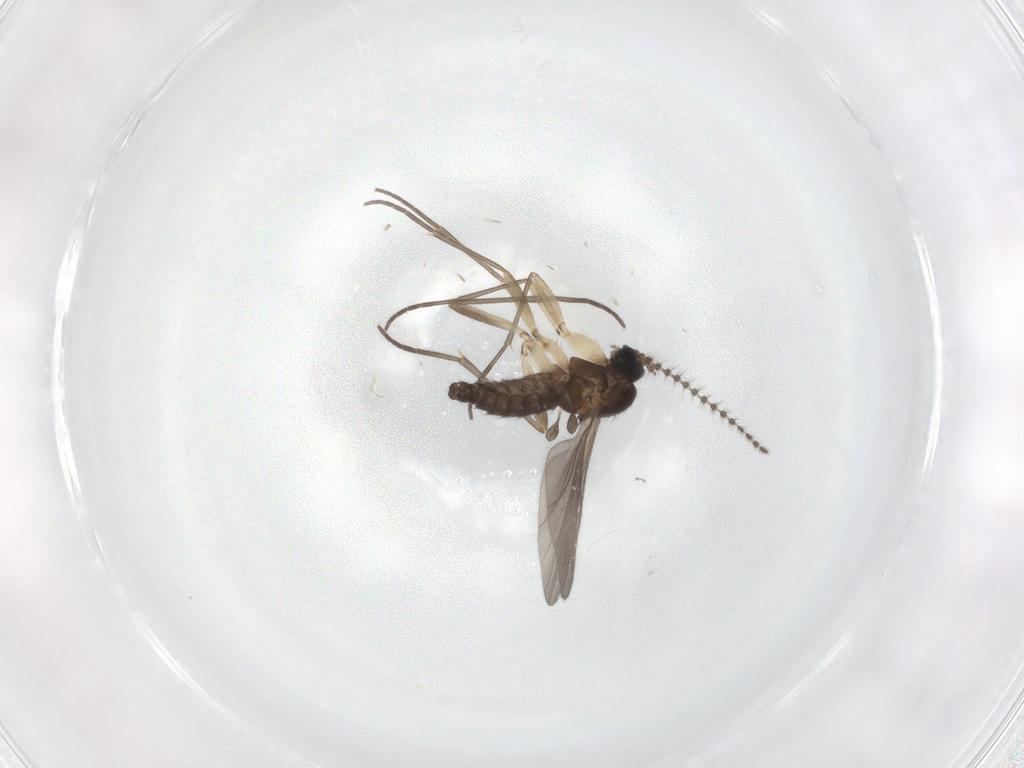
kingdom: Animalia
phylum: Arthropoda
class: Insecta
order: Diptera
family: Sciaridae
